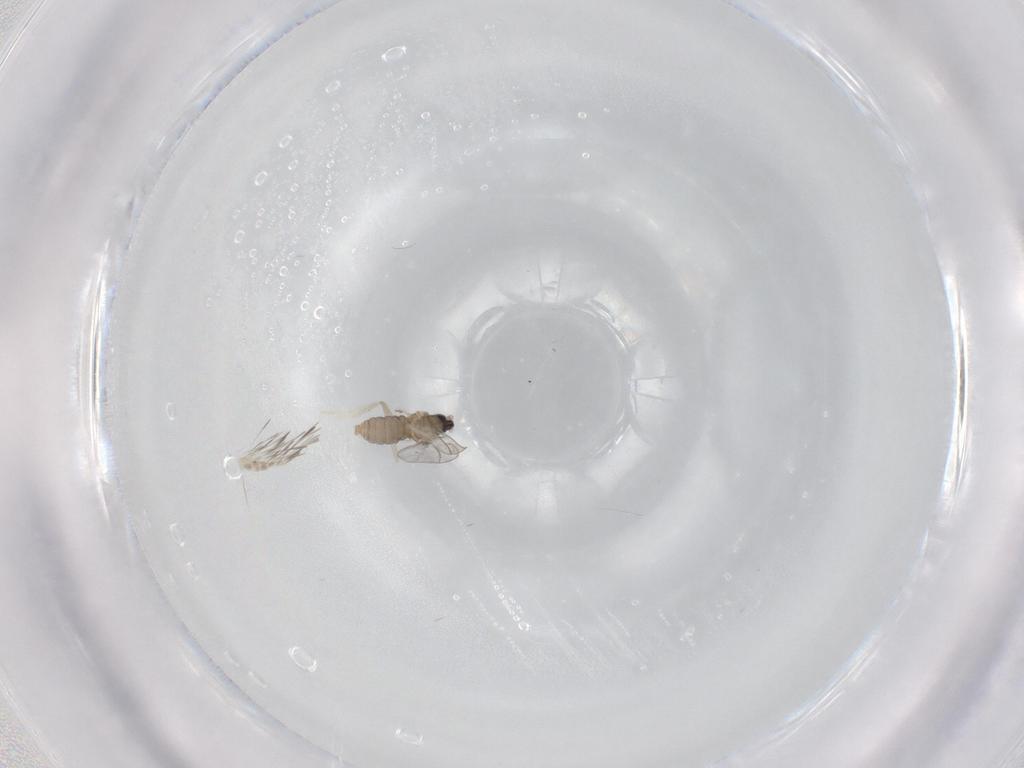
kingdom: Animalia
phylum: Arthropoda
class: Insecta
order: Diptera
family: Cecidomyiidae
